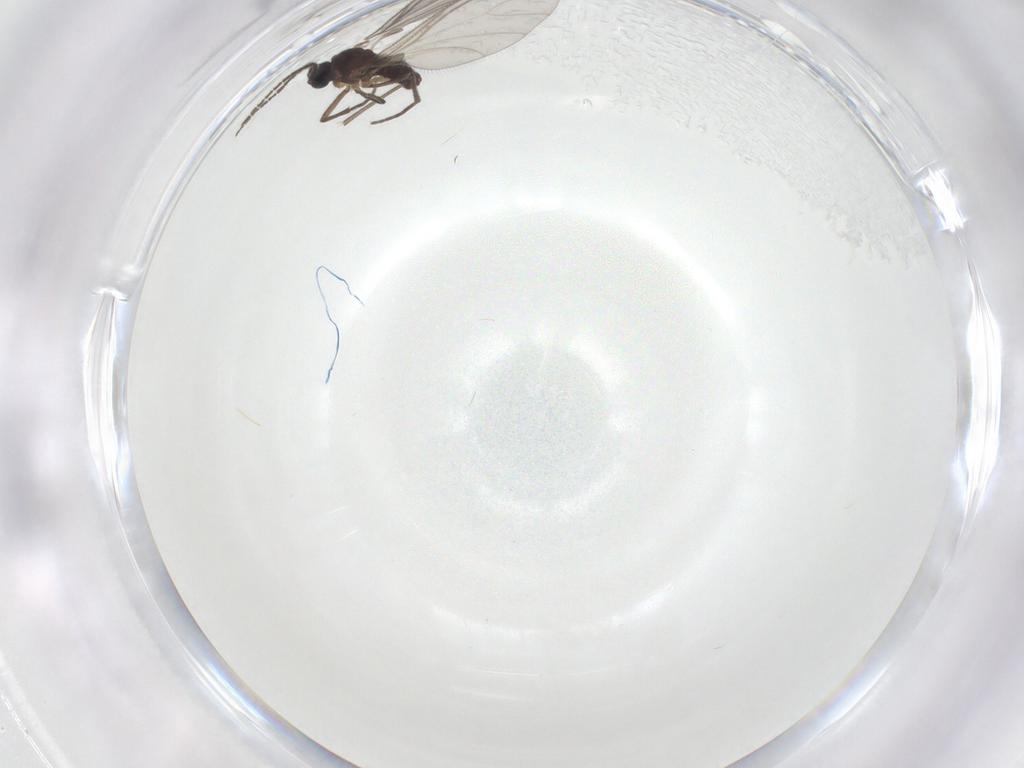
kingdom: Animalia
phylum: Arthropoda
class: Insecta
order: Diptera
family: Sciaridae
